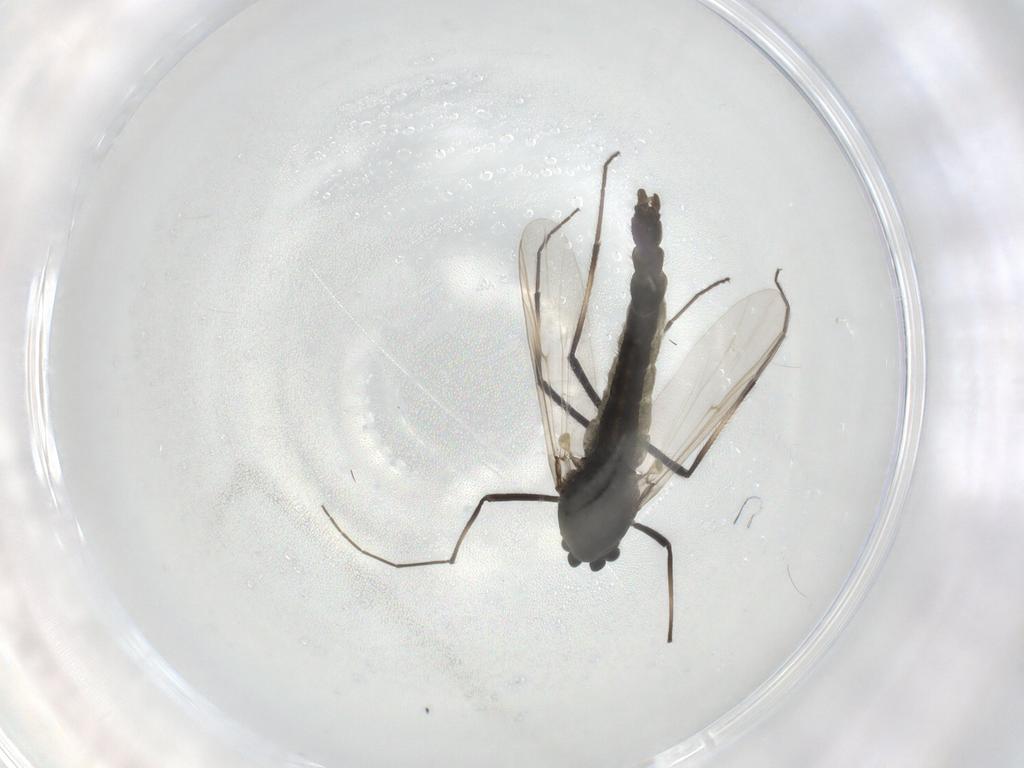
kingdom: Animalia
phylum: Arthropoda
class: Insecta
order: Diptera
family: Chironomidae
